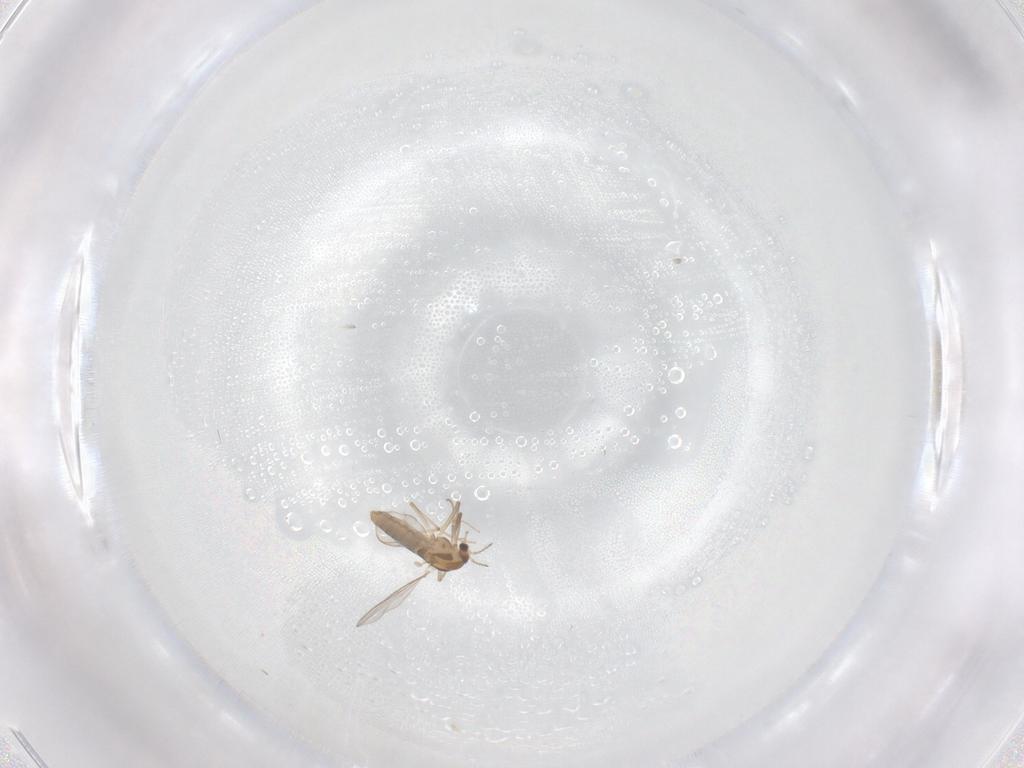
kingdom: Animalia
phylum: Arthropoda
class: Insecta
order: Diptera
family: Chironomidae
